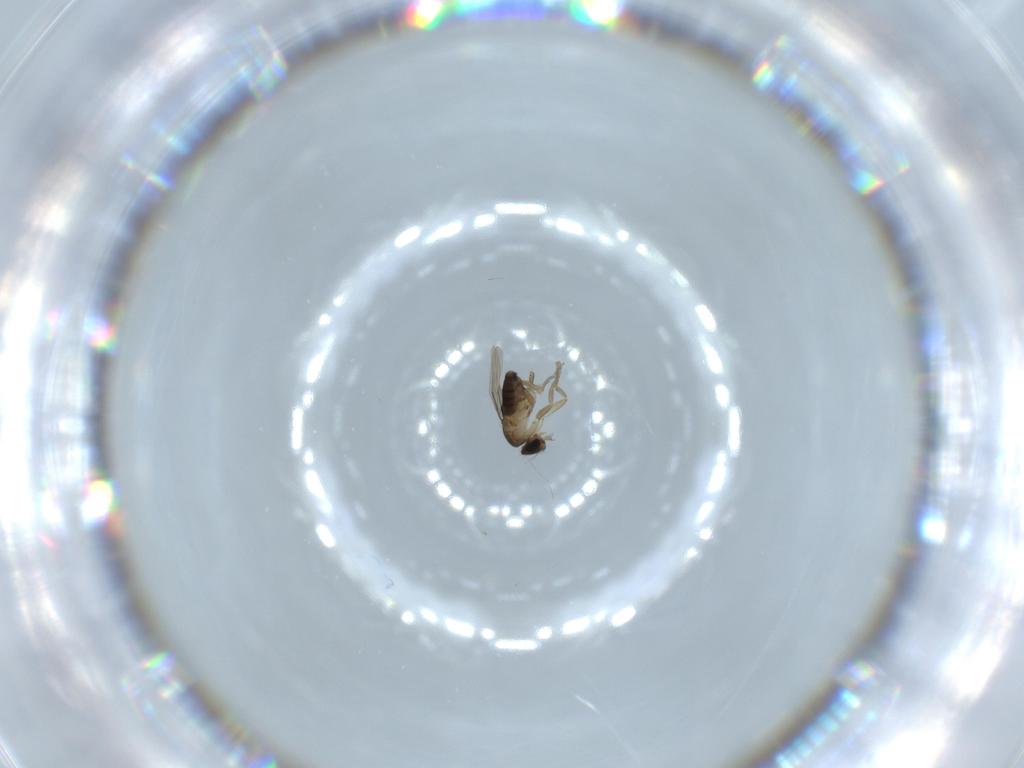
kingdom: Animalia
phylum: Arthropoda
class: Insecta
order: Diptera
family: Phoridae
